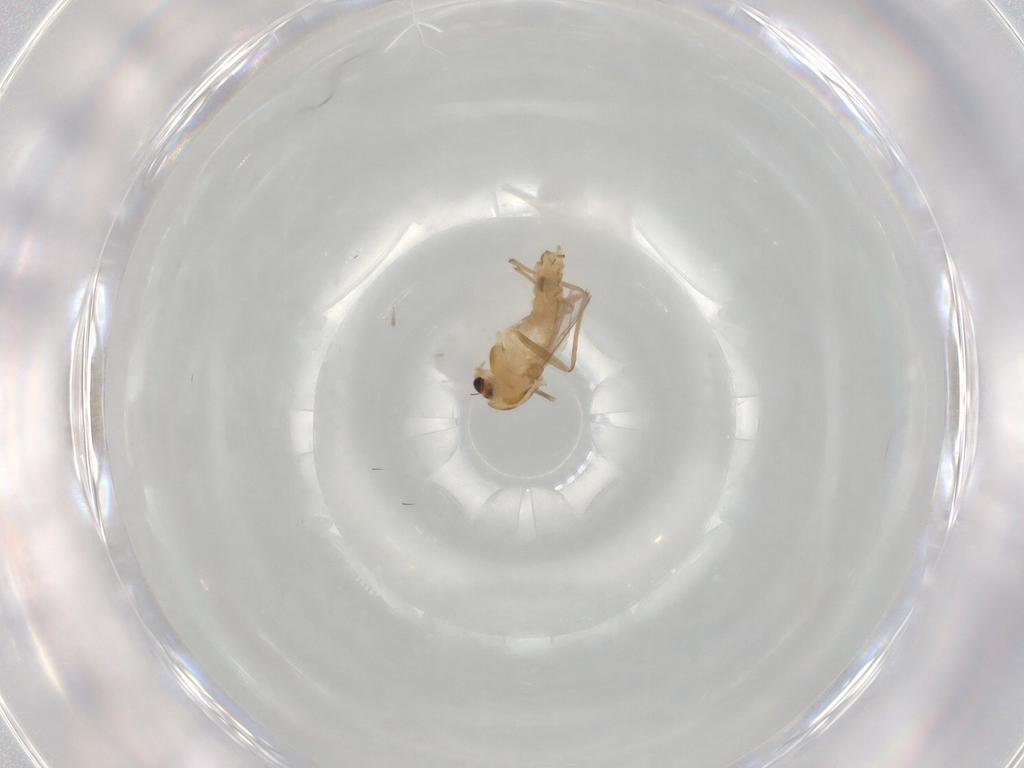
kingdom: Animalia
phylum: Arthropoda
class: Insecta
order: Diptera
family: Chironomidae
